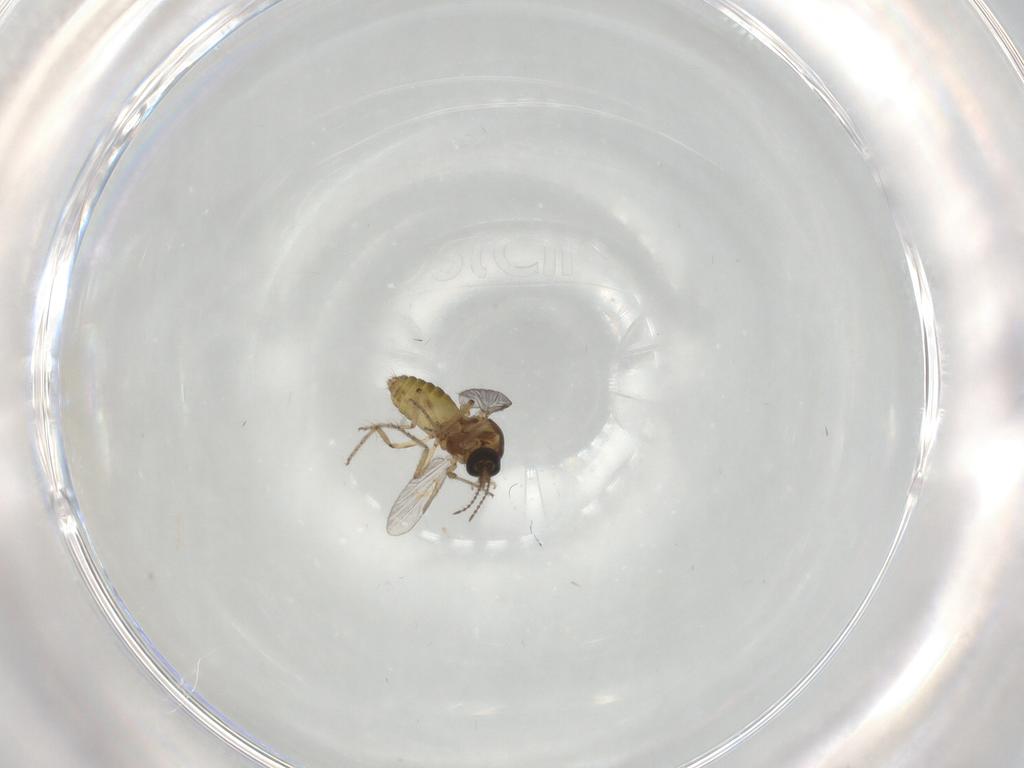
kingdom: Animalia
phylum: Arthropoda
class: Insecta
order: Diptera
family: Ceratopogonidae
